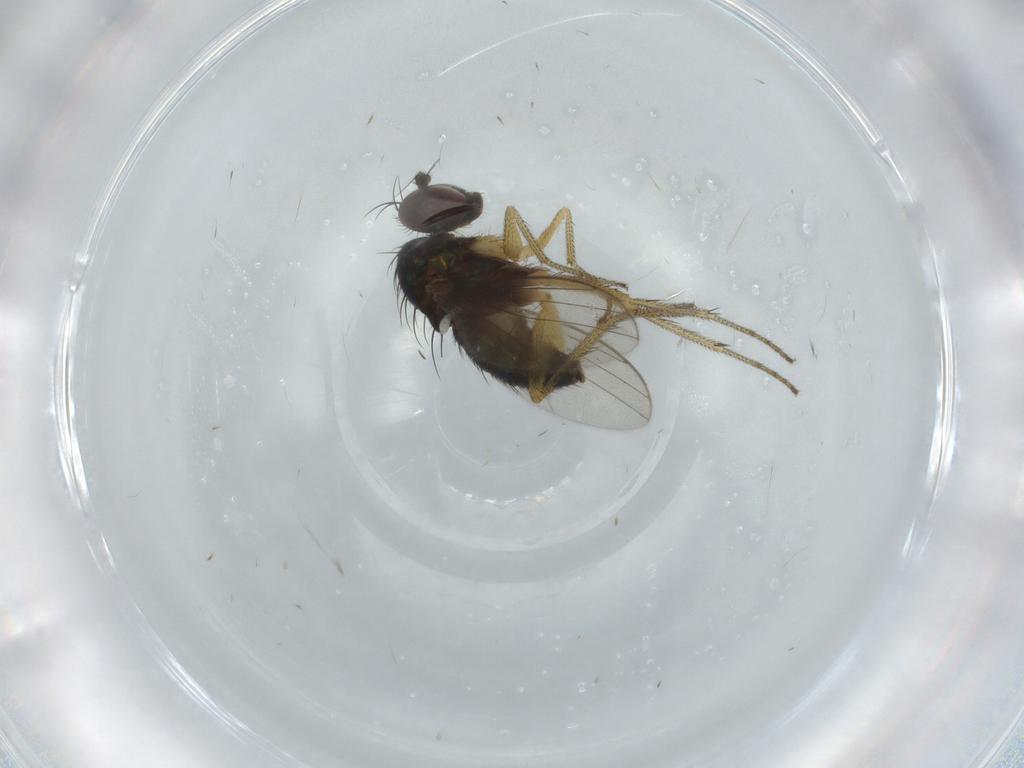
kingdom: Animalia
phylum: Arthropoda
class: Insecta
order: Diptera
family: Dolichopodidae
